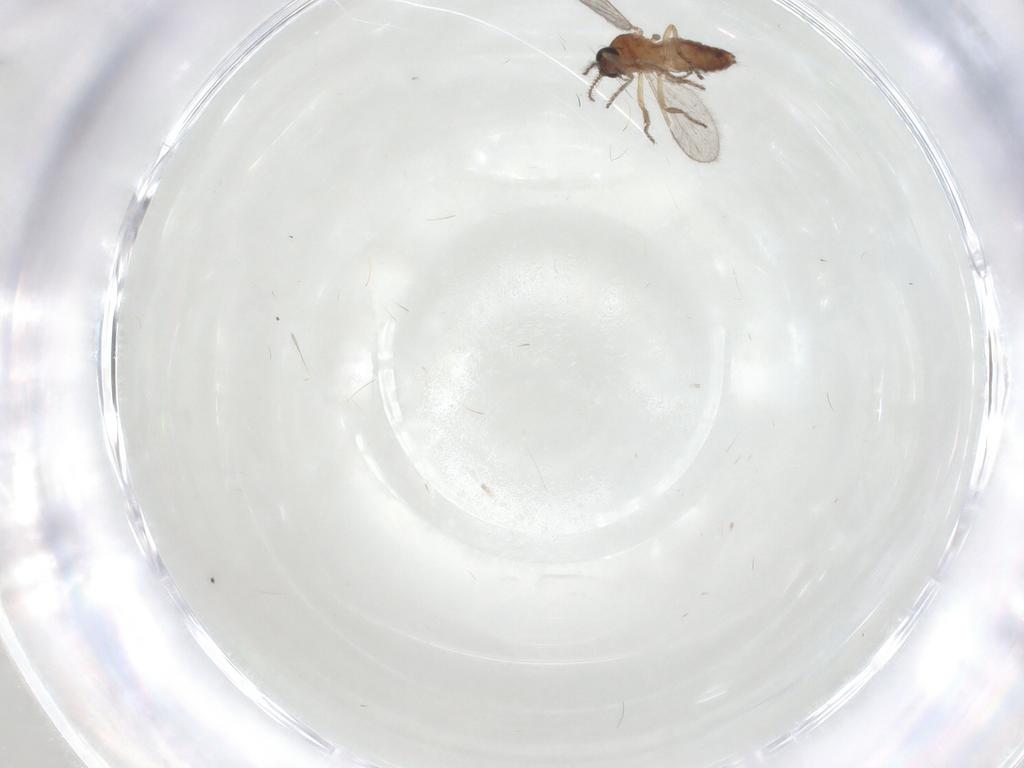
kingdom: Animalia
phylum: Arthropoda
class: Insecta
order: Diptera
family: Ceratopogonidae
